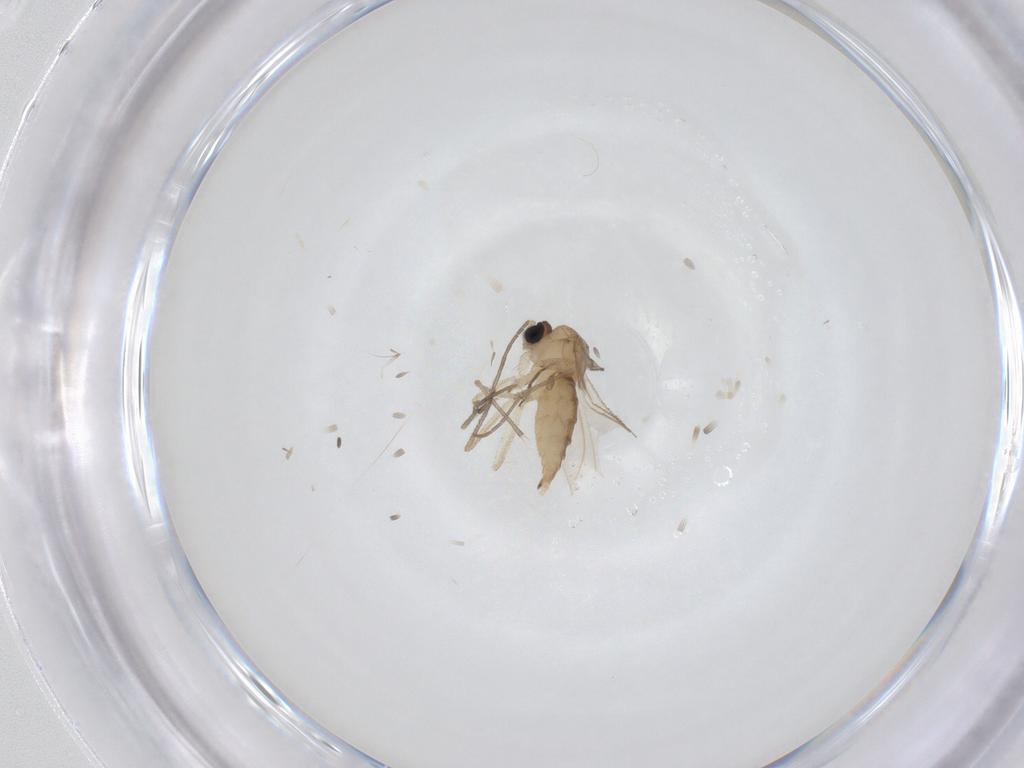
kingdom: Animalia
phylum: Arthropoda
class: Insecta
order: Diptera
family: Sciaridae
